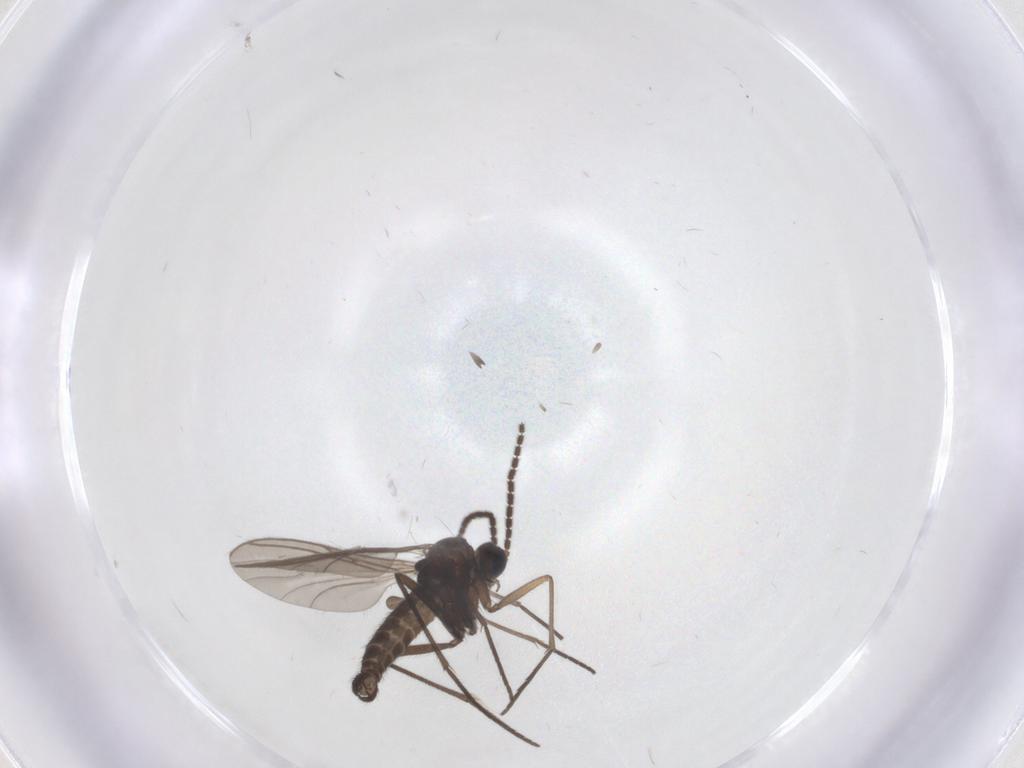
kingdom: Animalia
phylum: Arthropoda
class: Insecta
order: Diptera
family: Sciaridae
